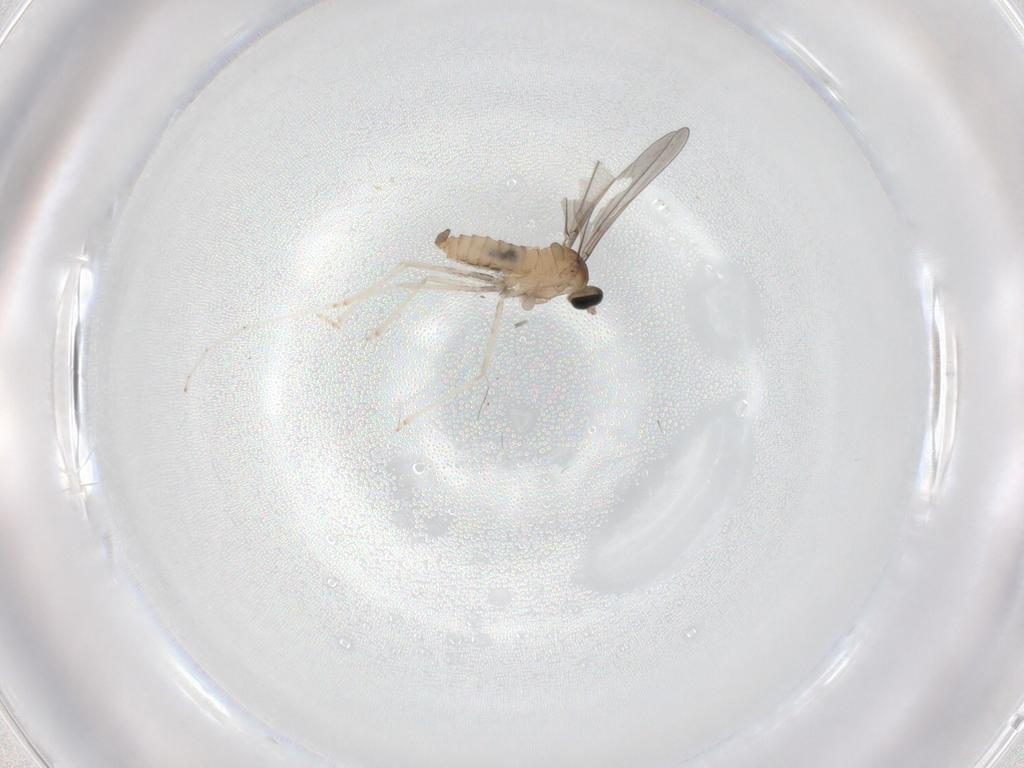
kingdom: Animalia
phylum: Arthropoda
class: Insecta
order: Diptera
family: Cecidomyiidae
